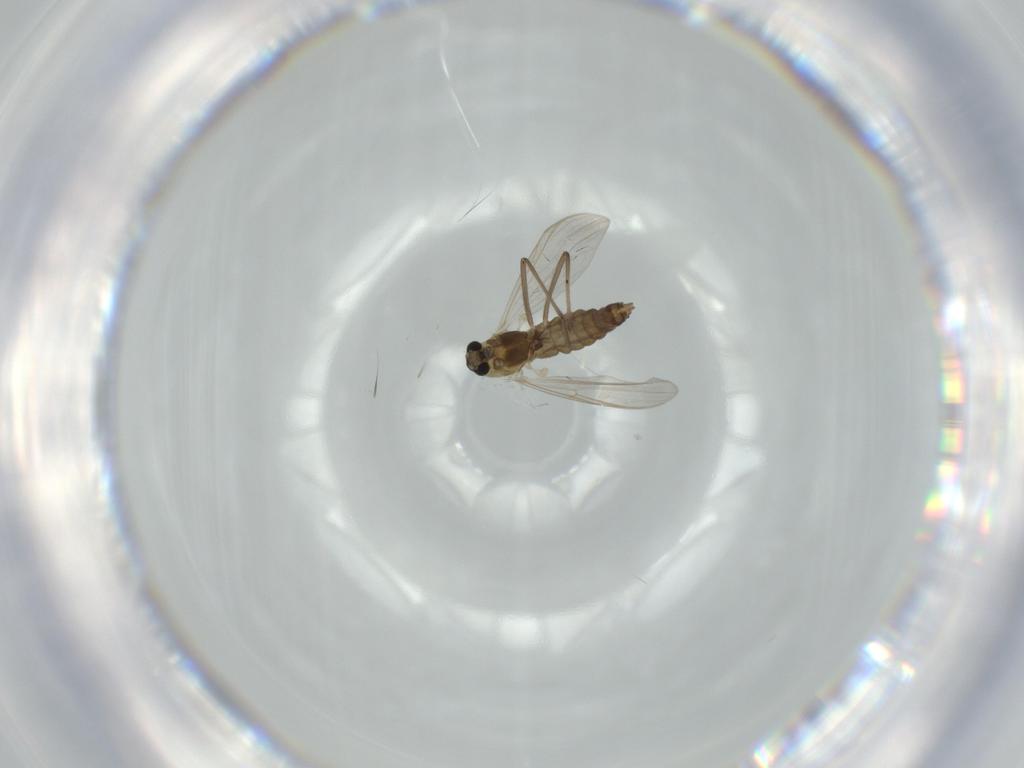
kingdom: Animalia
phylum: Arthropoda
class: Insecta
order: Diptera
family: Chironomidae
